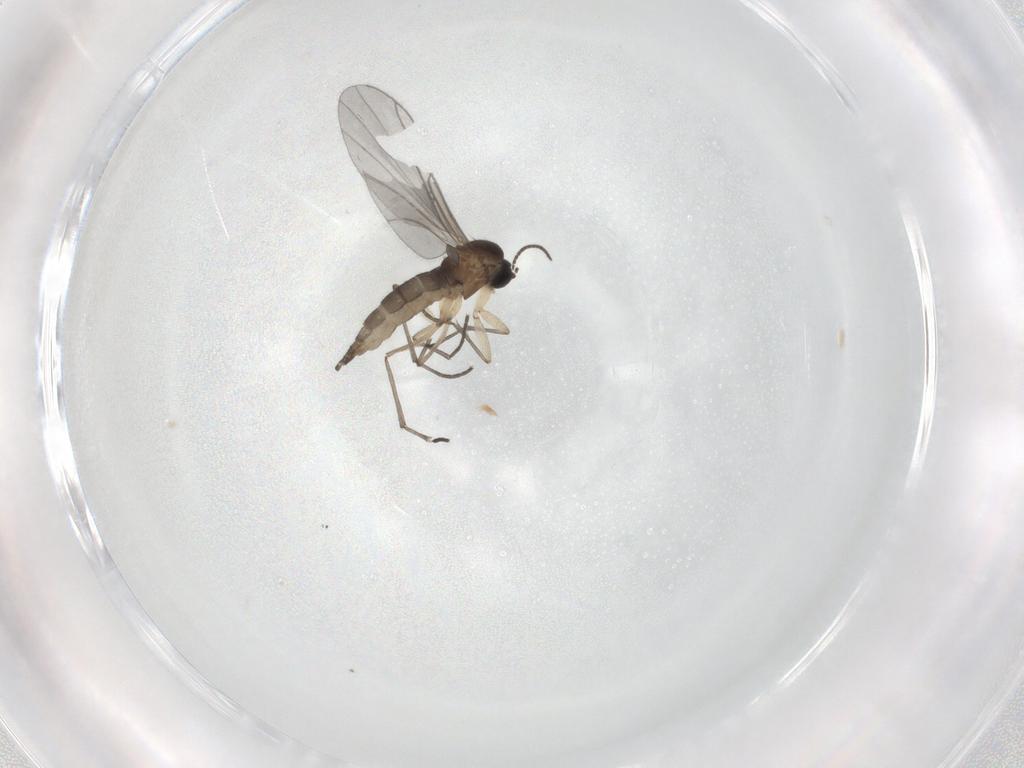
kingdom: Animalia
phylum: Arthropoda
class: Insecta
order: Diptera
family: Sciaridae
